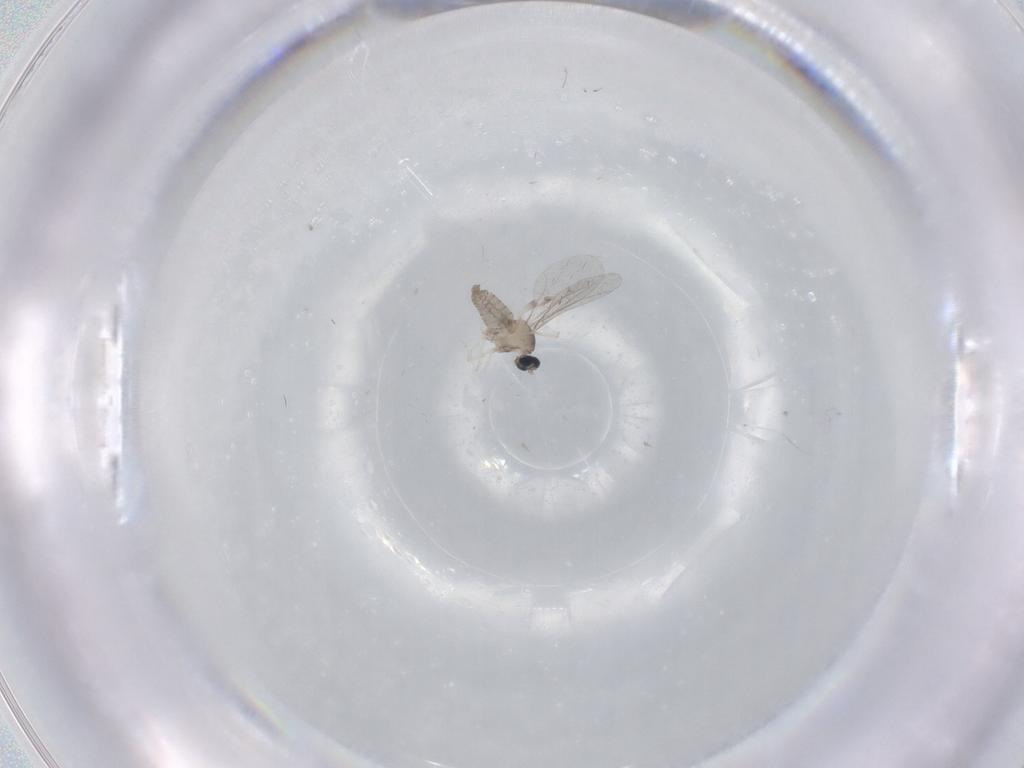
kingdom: Animalia
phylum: Arthropoda
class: Insecta
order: Diptera
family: Cecidomyiidae
